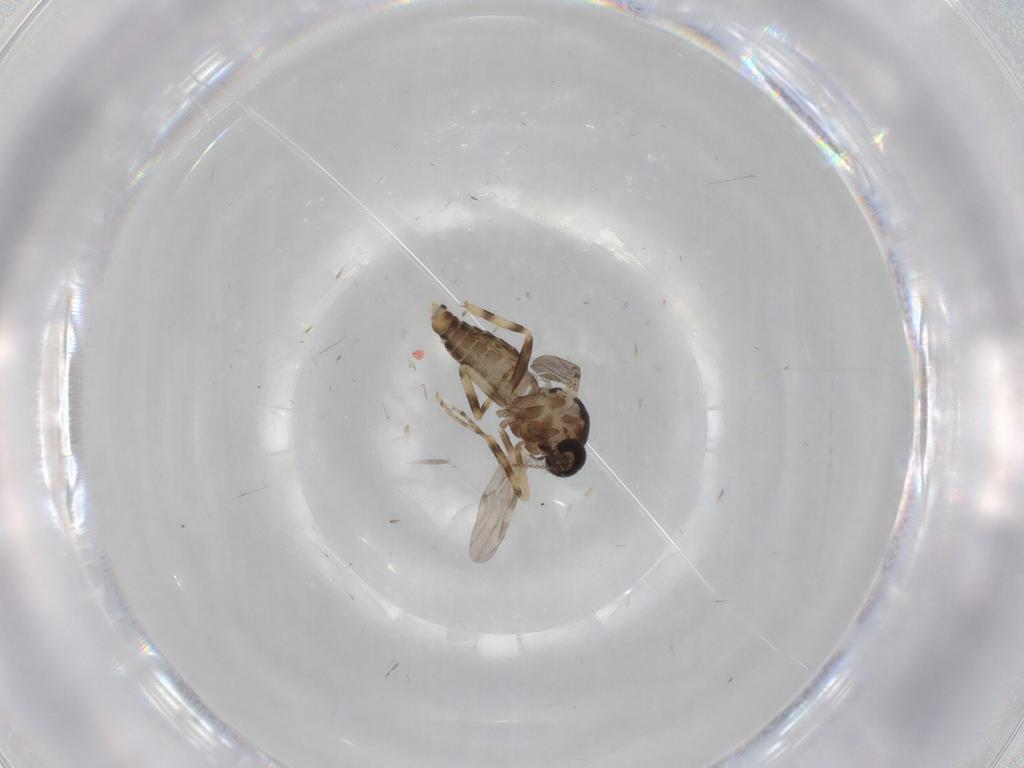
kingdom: Animalia
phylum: Arthropoda
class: Insecta
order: Diptera
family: Ceratopogonidae
